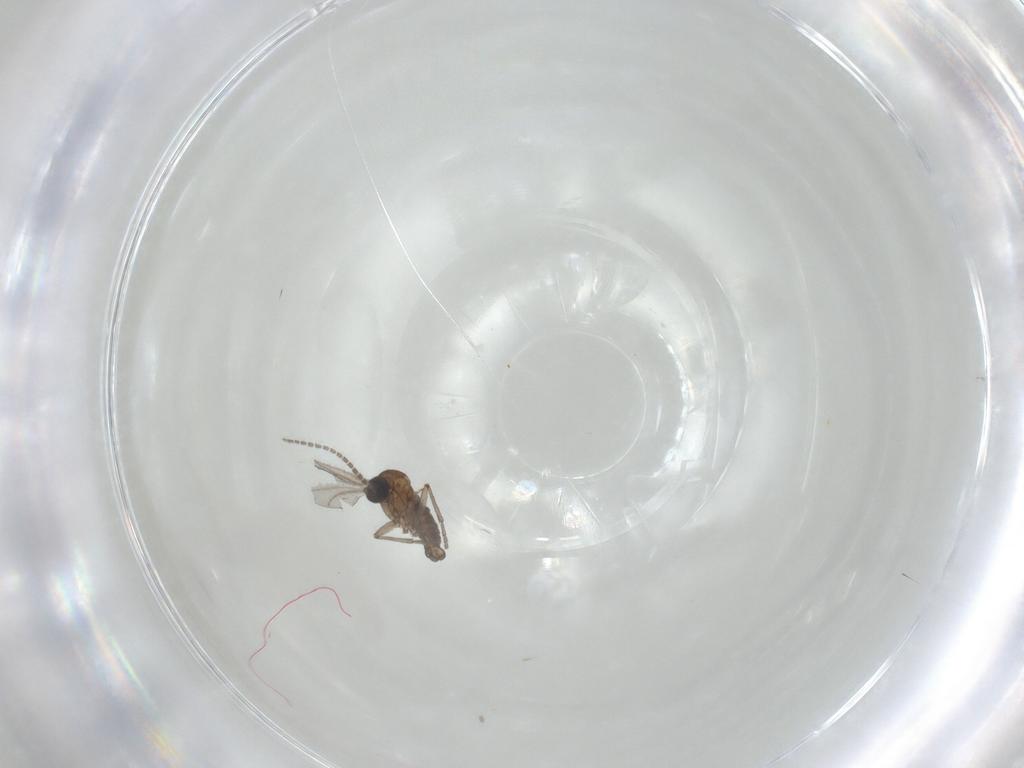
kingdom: Animalia
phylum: Arthropoda
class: Insecta
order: Diptera
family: Sciaridae
